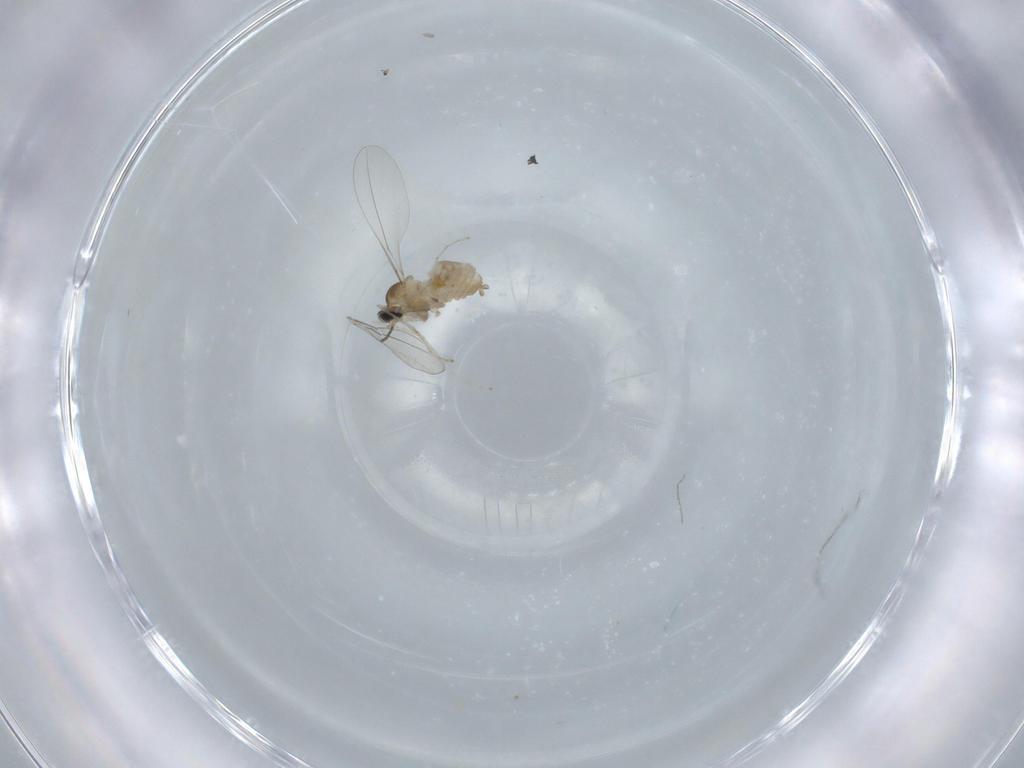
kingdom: Animalia
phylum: Arthropoda
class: Insecta
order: Diptera
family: Cecidomyiidae
